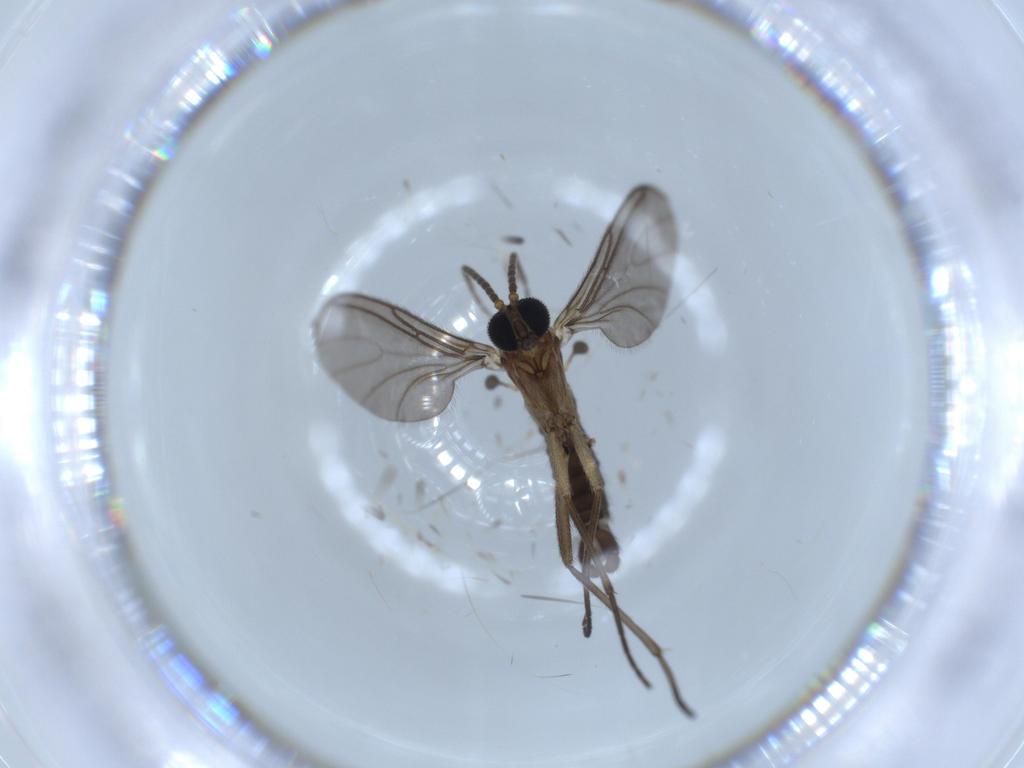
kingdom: Animalia
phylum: Arthropoda
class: Insecta
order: Diptera
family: Sciaridae
